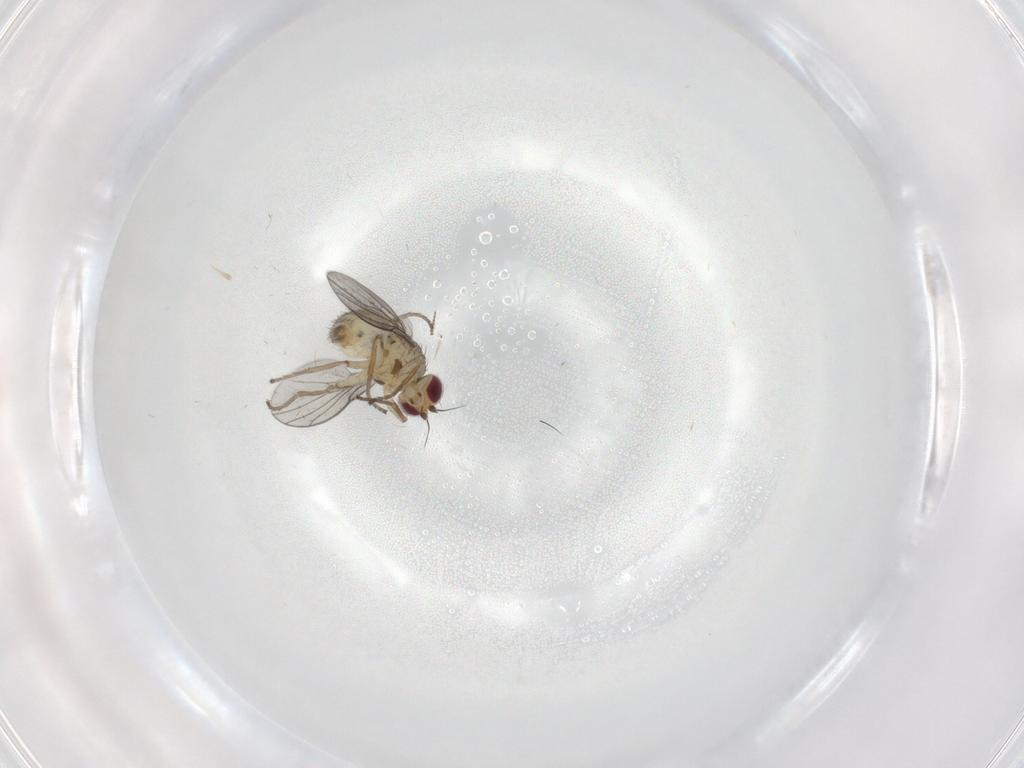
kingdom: Animalia
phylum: Arthropoda
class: Insecta
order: Diptera
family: Agromyzidae
